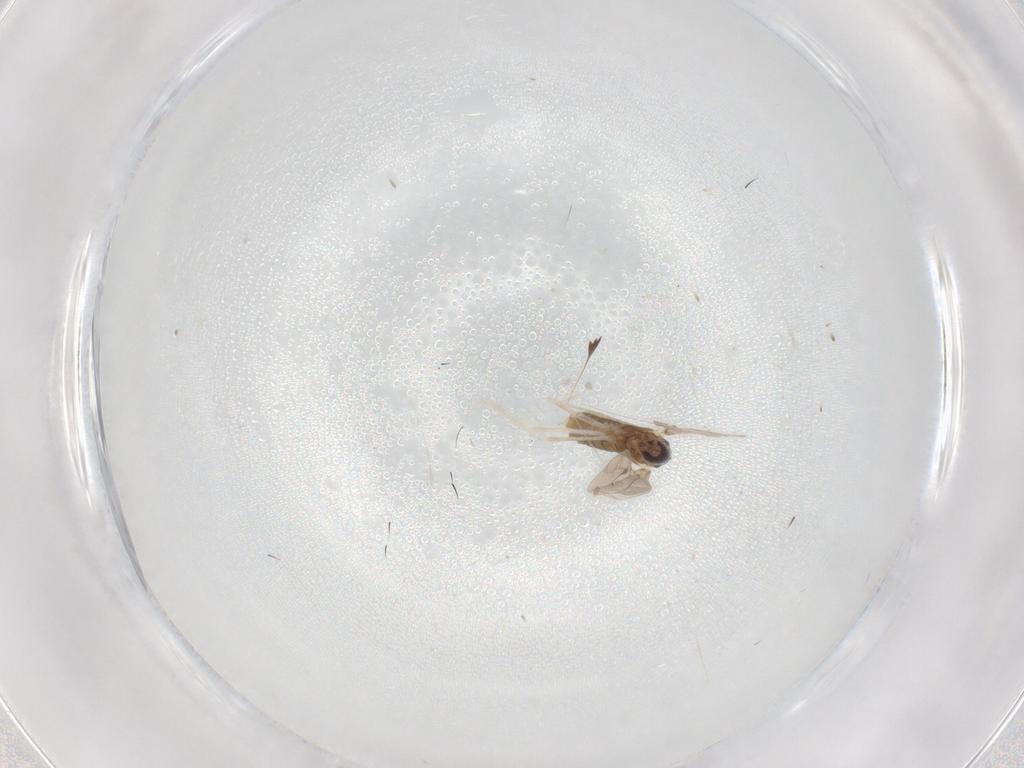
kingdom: Animalia
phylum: Arthropoda
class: Insecta
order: Diptera
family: Cecidomyiidae
